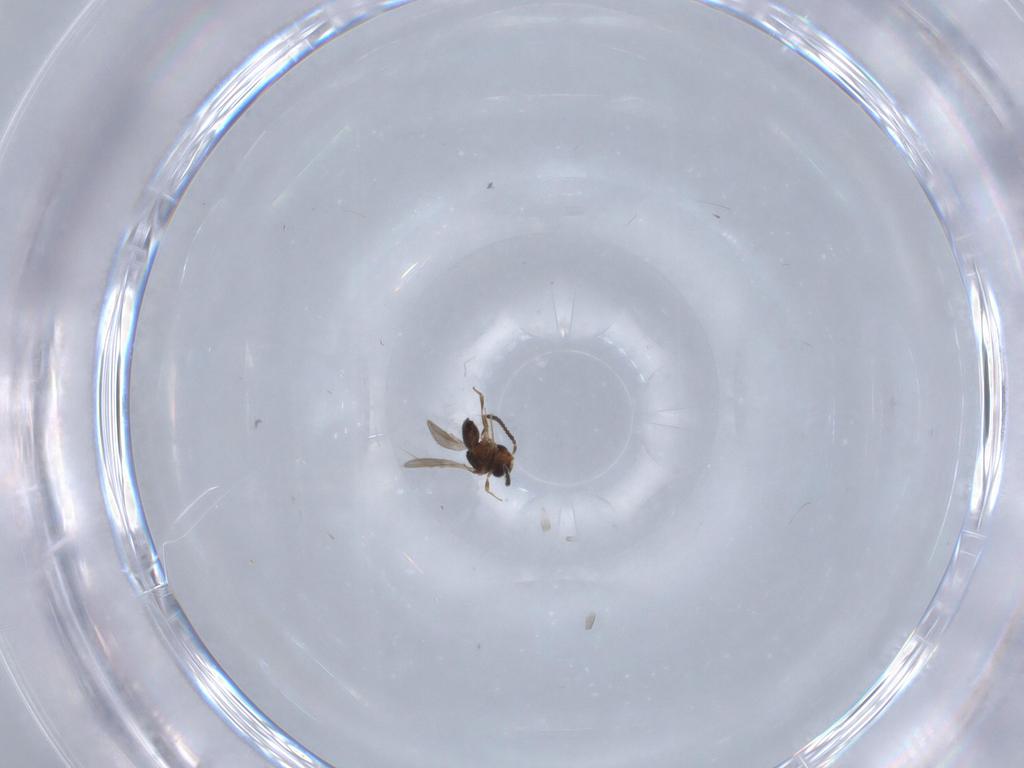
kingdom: Animalia
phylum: Arthropoda
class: Insecta
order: Hymenoptera
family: Scelionidae
